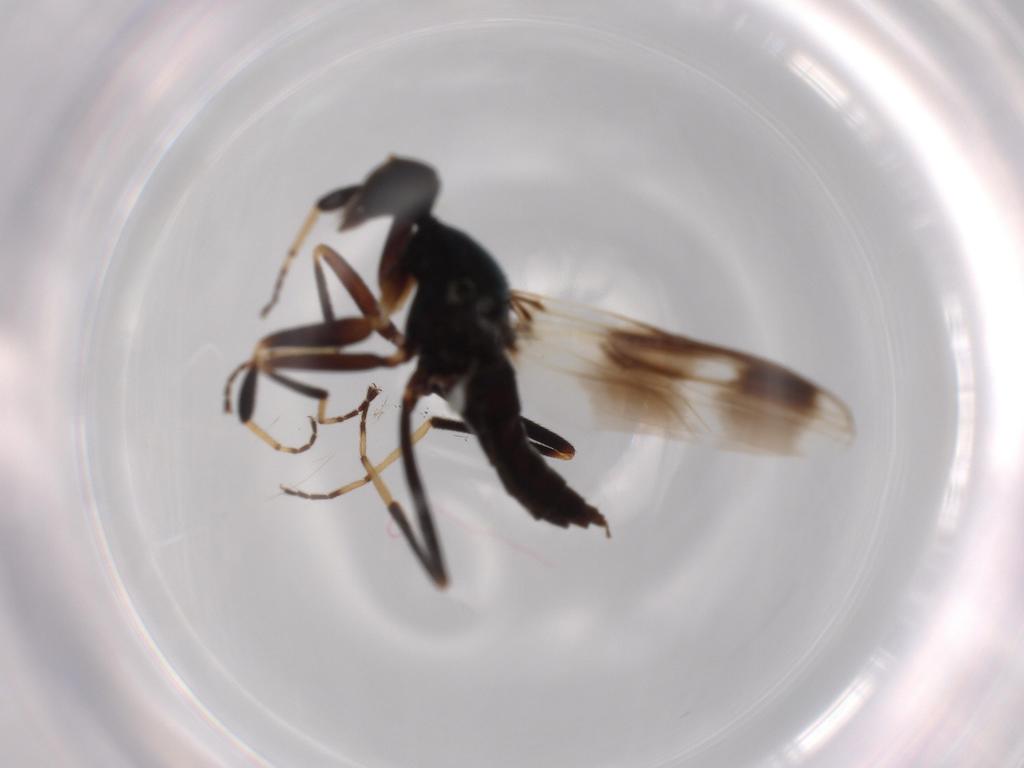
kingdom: Animalia
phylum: Arthropoda
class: Insecta
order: Diptera
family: Hybotidae
